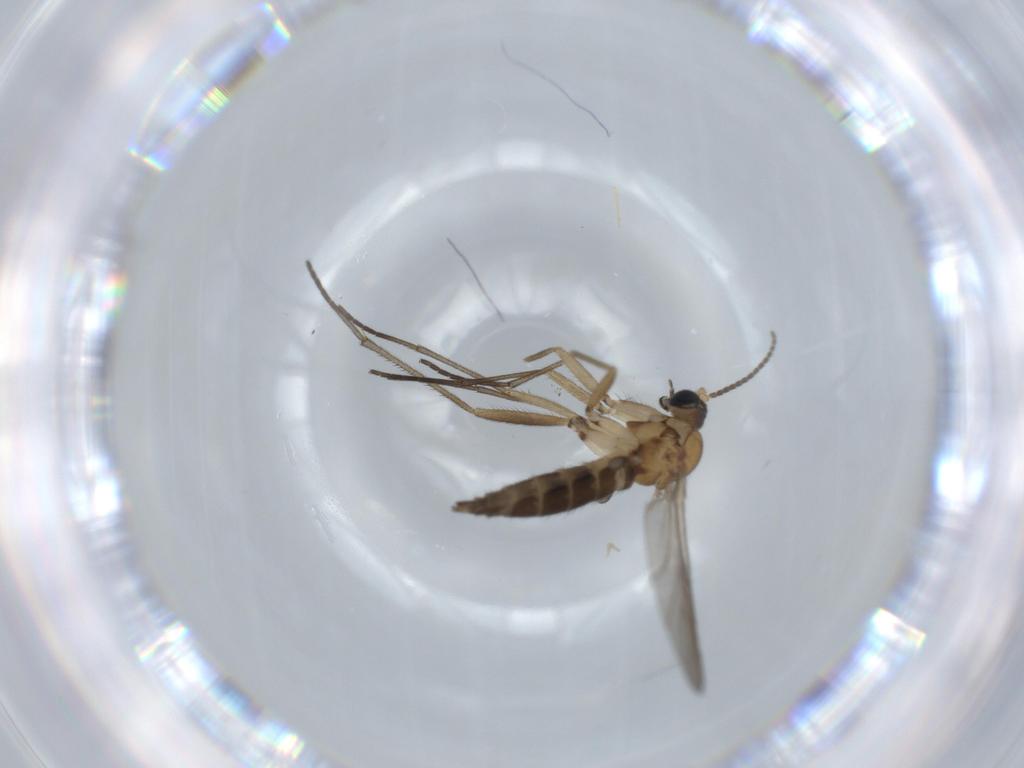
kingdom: Animalia
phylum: Arthropoda
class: Insecta
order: Diptera
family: Sciaridae
